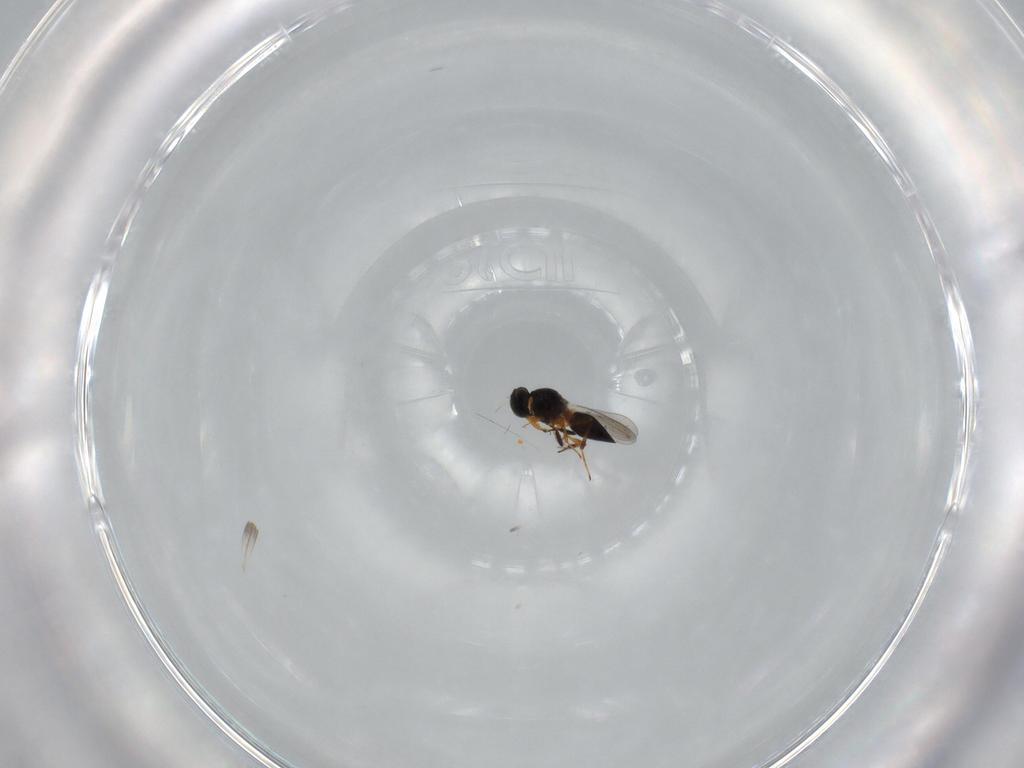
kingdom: Animalia
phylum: Arthropoda
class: Insecta
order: Hymenoptera
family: Platygastridae
